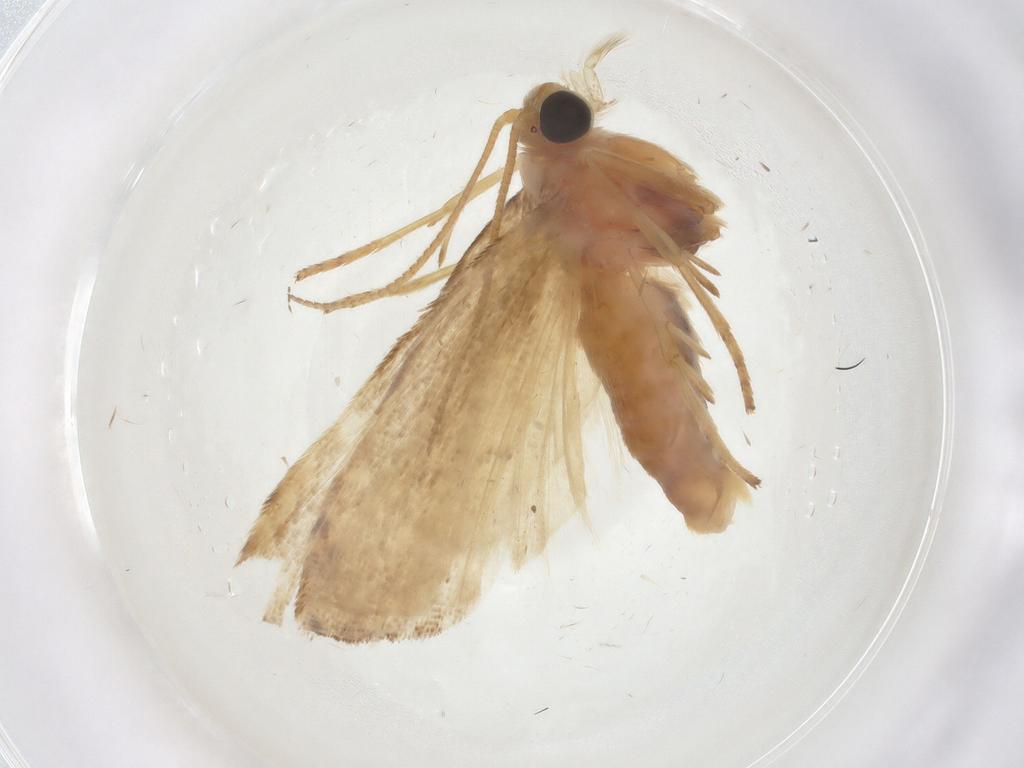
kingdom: Animalia
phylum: Arthropoda
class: Insecta
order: Lepidoptera
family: Pyralidae
